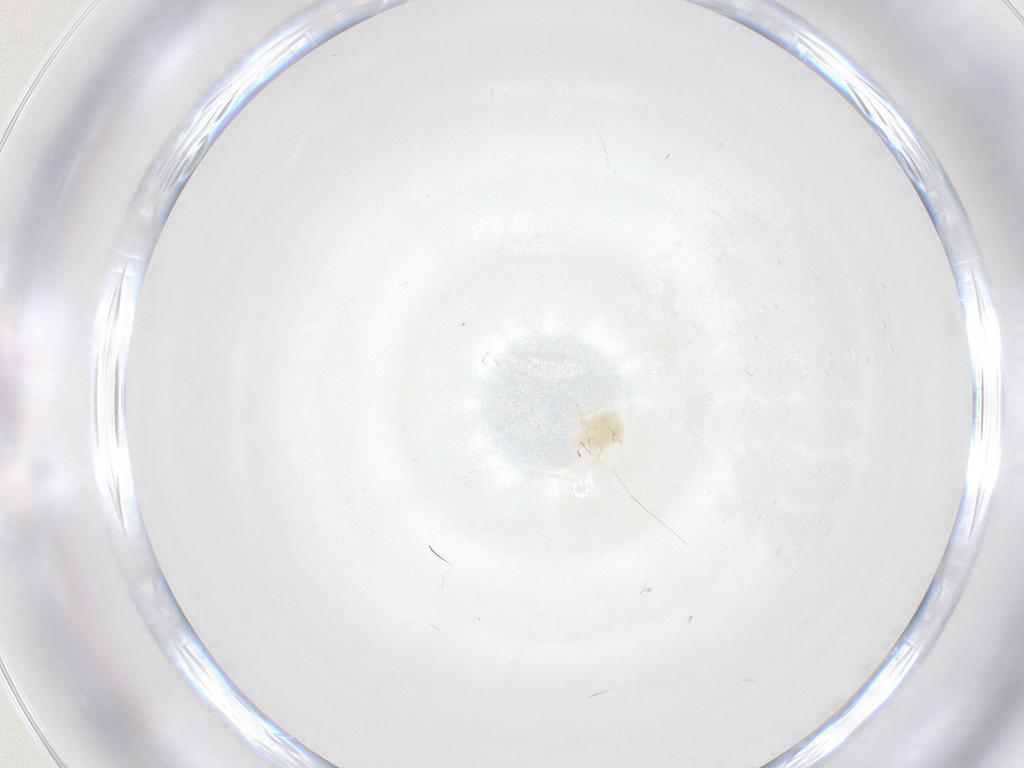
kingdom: Animalia
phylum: Arthropoda
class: Arachnida
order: Trombidiformes
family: Anystidae
